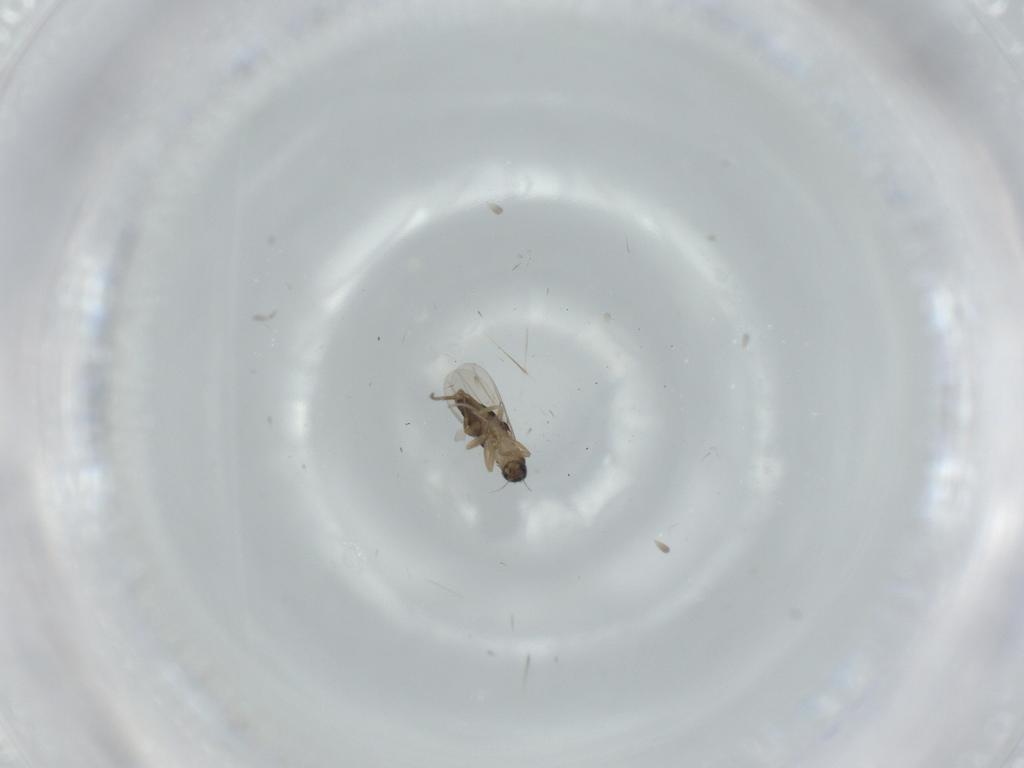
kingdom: Animalia
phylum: Arthropoda
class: Insecta
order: Diptera
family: Phoridae
